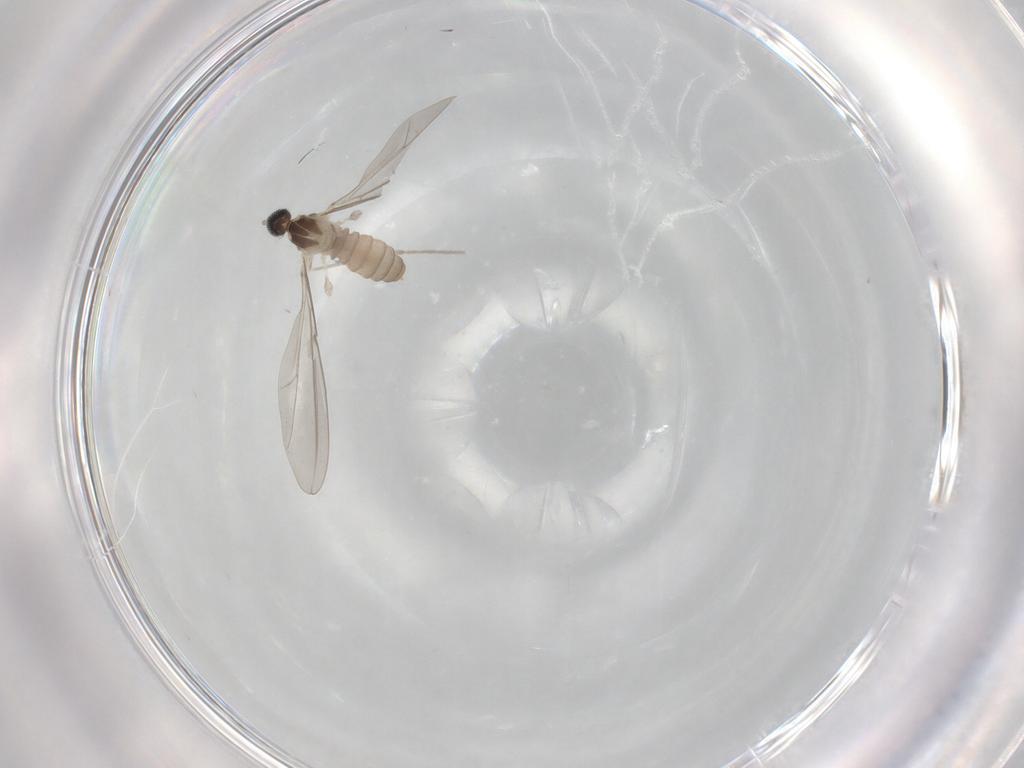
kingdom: Animalia
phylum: Arthropoda
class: Insecta
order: Diptera
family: Cecidomyiidae
